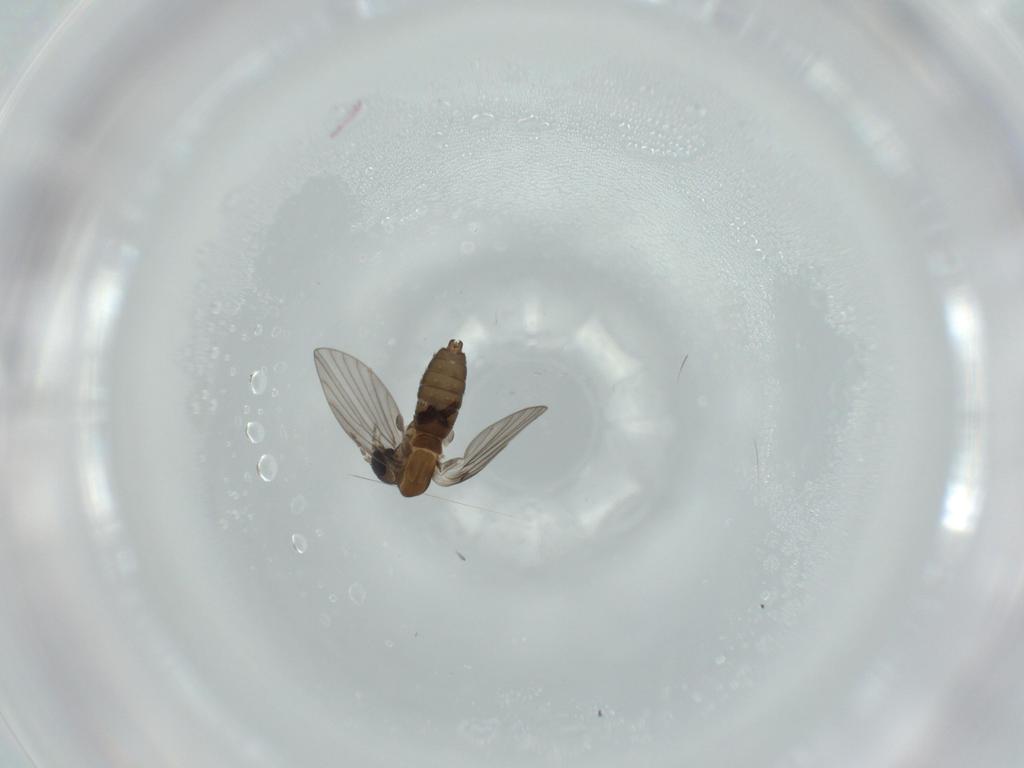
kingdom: Animalia
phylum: Arthropoda
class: Insecta
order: Diptera
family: Psychodidae
